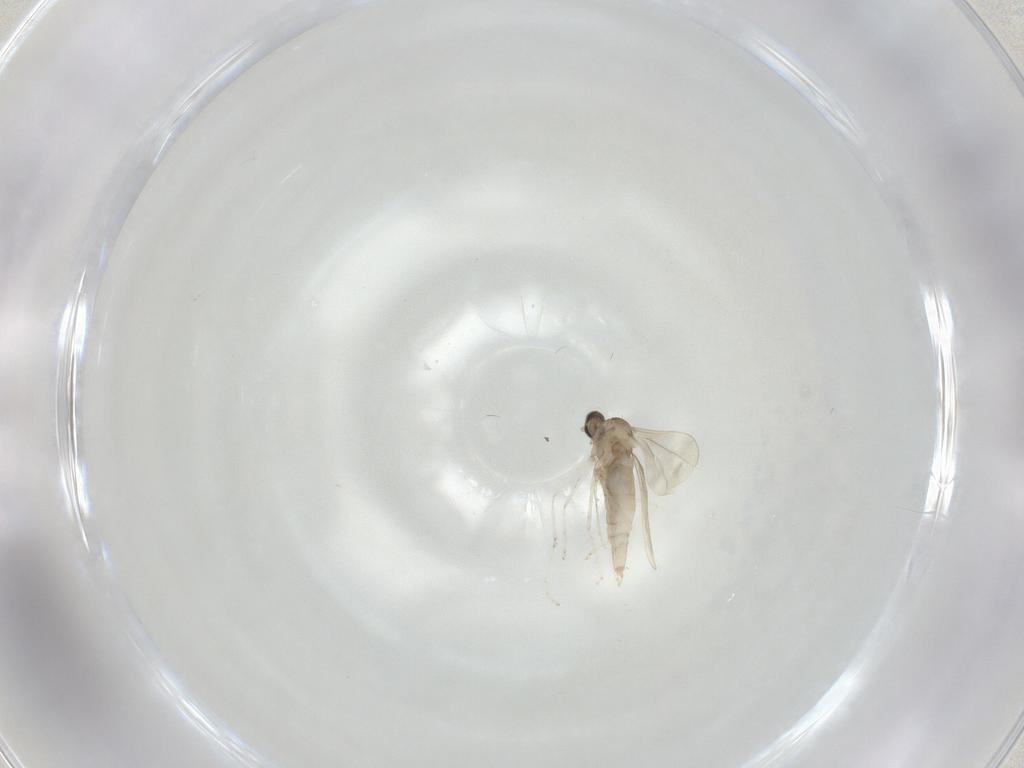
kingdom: Animalia
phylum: Arthropoda
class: Insecta
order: Diptera
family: Cecidomyiidae
